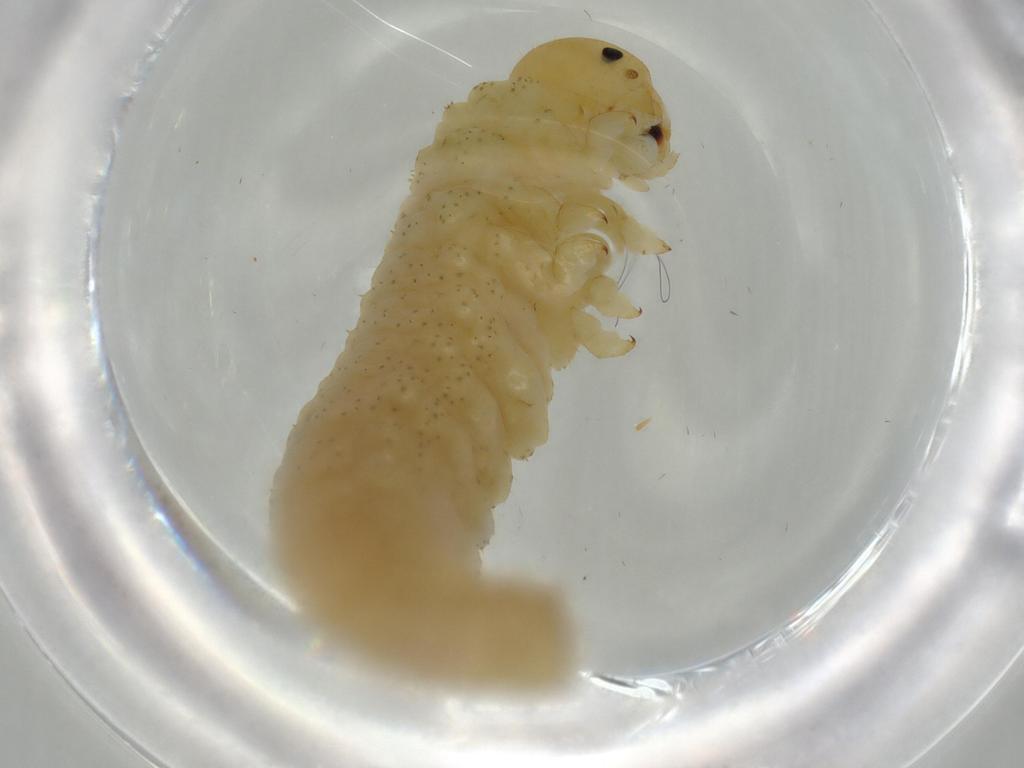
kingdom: Animalia
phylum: Arthropoda
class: Insecta
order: Hymenoptera
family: Tenthredinidae
